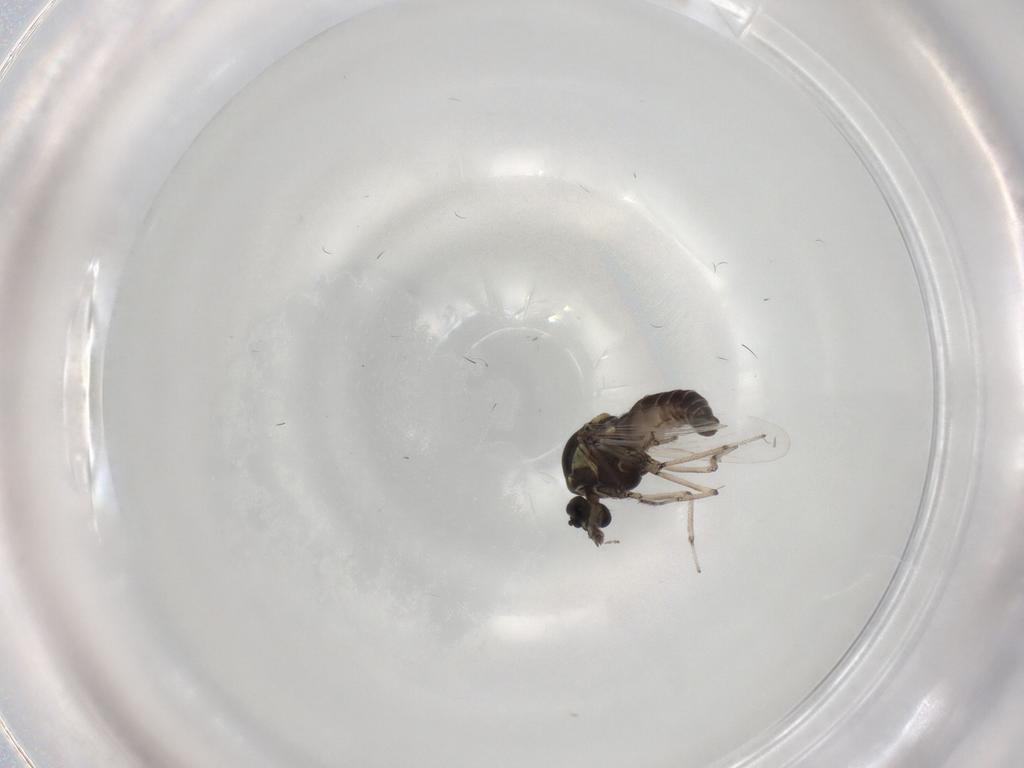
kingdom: Animalia
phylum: Arthropoda
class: Insecta
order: Diptera
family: Ceratopogonidae
